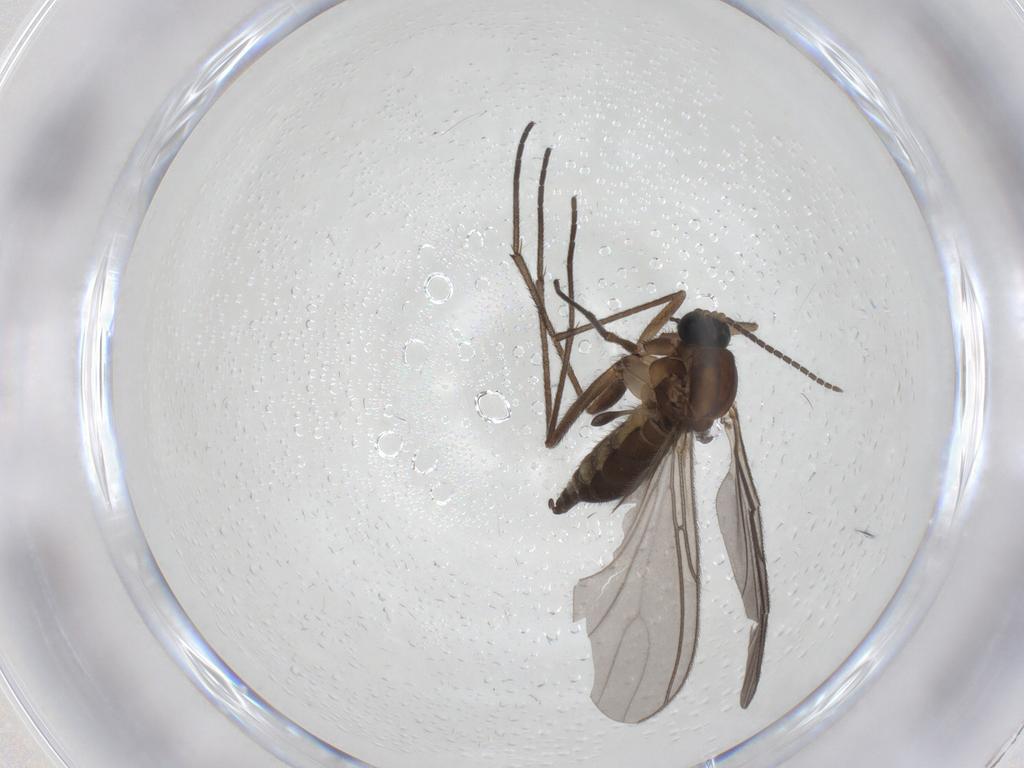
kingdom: Animalia
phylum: Arthropoda
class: Insecta
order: Diptera
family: Sciaridae
